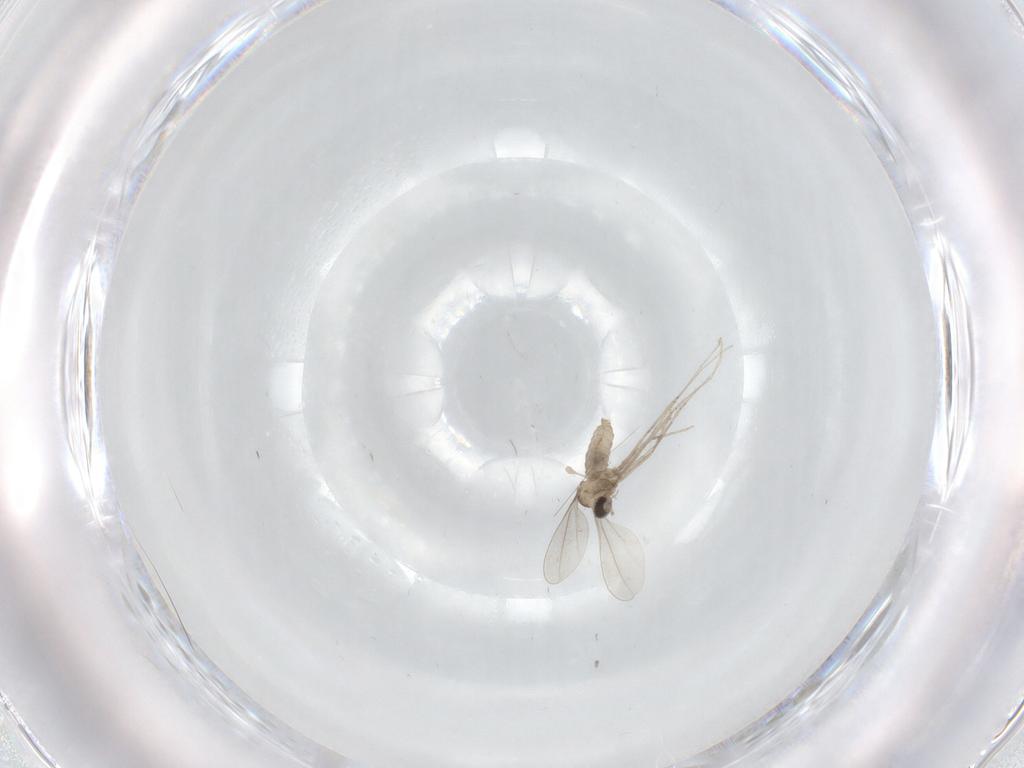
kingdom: Animalia
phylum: Arthropoda
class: Insecta
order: Diptera
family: Cecidomyiidae
